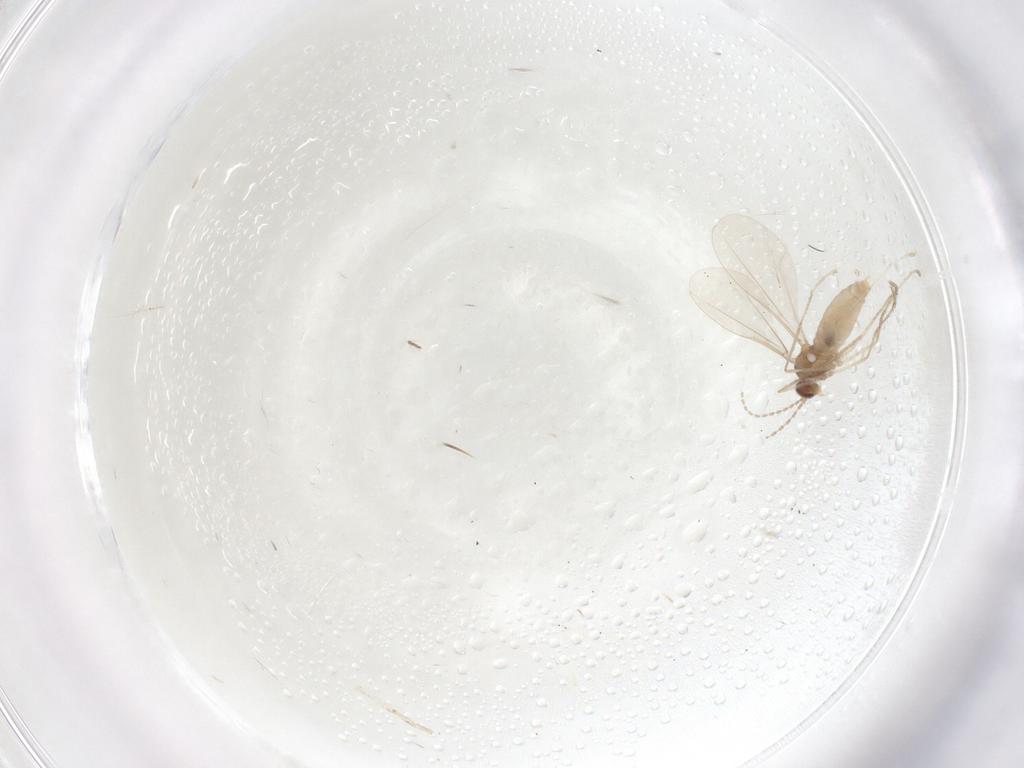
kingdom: Animalia
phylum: Arthropoda
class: Insecta
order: Diptera
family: Cecidomyiidae
